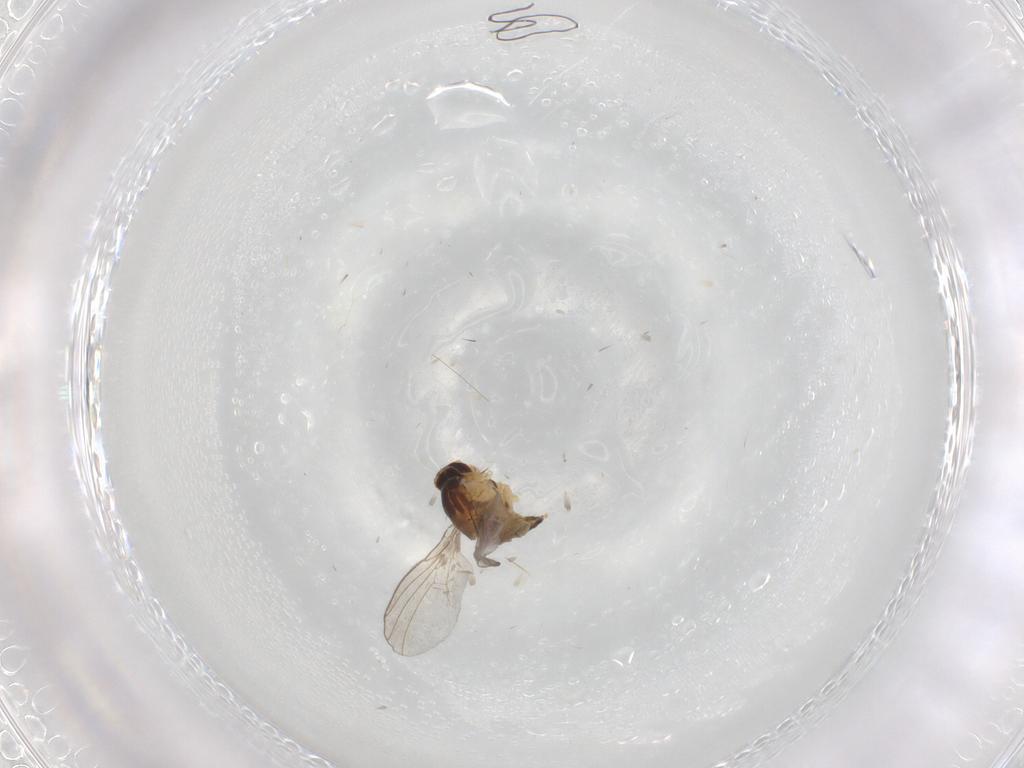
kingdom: Animalia
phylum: Arthropoda
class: Insecta
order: Diptera
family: Agromyzidae
